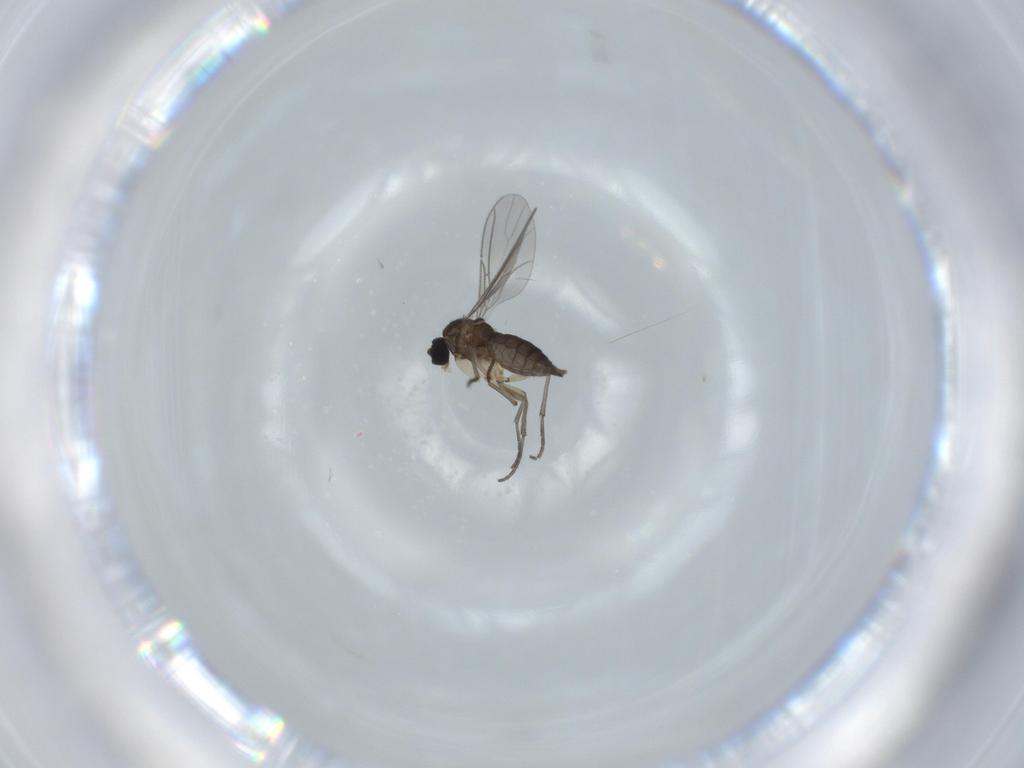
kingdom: Animalia
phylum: Arthropoda
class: Insecta
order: Diptera
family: Sciaridae
